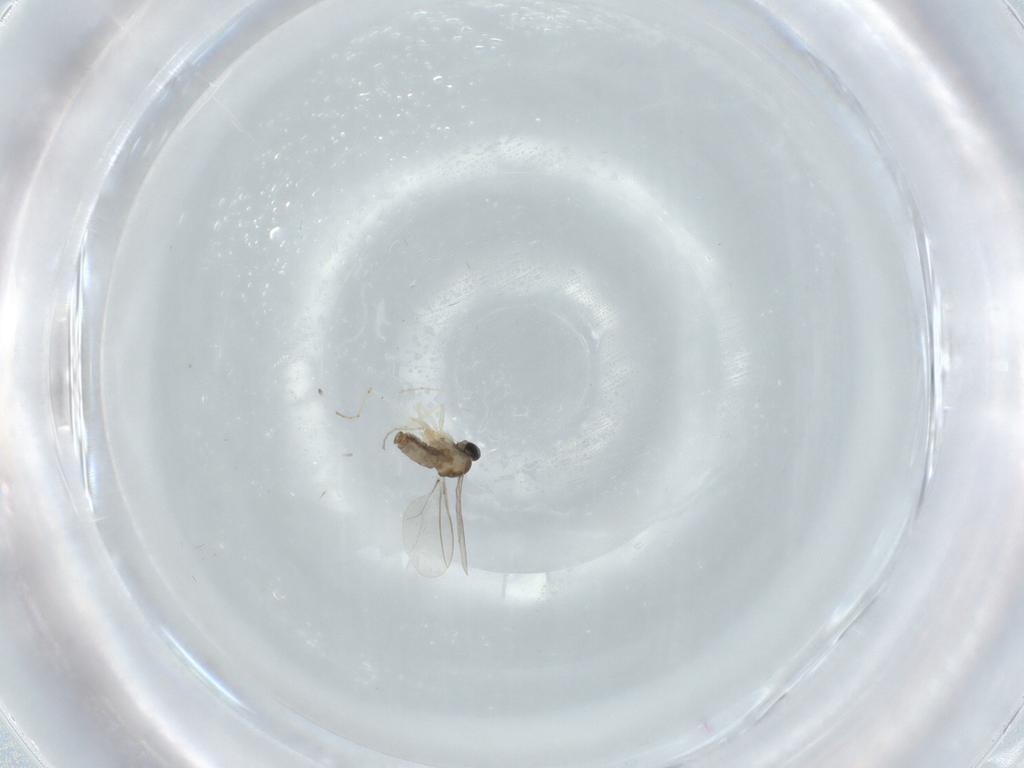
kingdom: Animalia
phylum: Arthropoda
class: Insecta
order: Diptera
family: Cecidomyiidae
